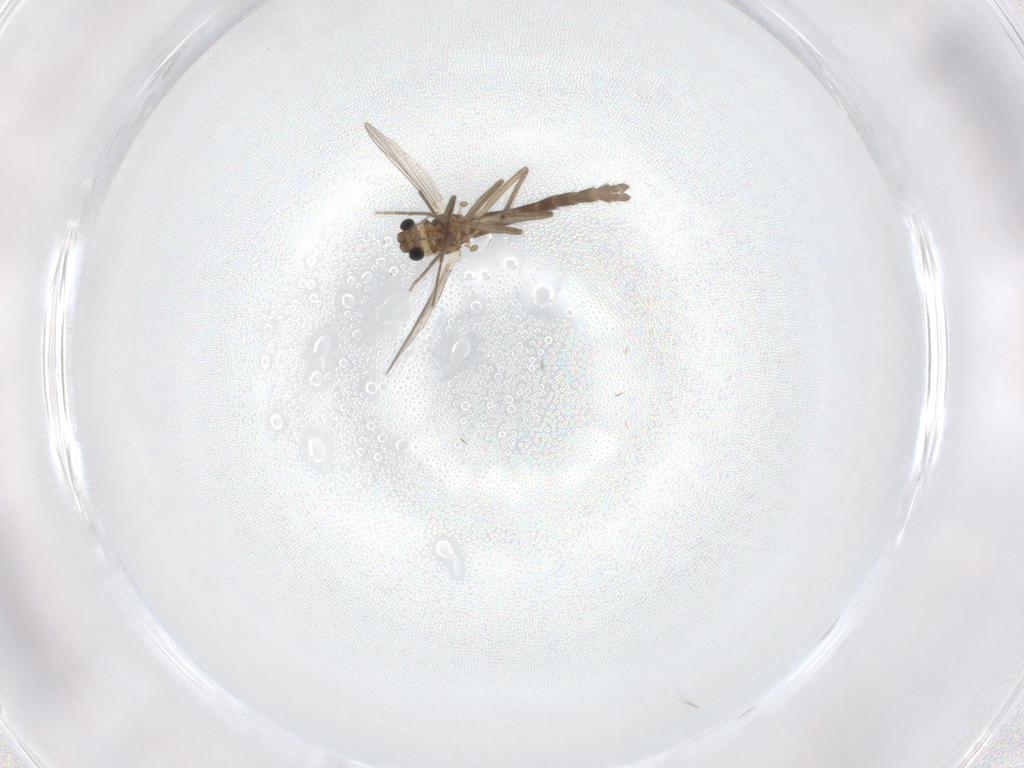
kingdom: Animalia
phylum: Arthropoda
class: Insecta
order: Diptera
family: Chironomidae
